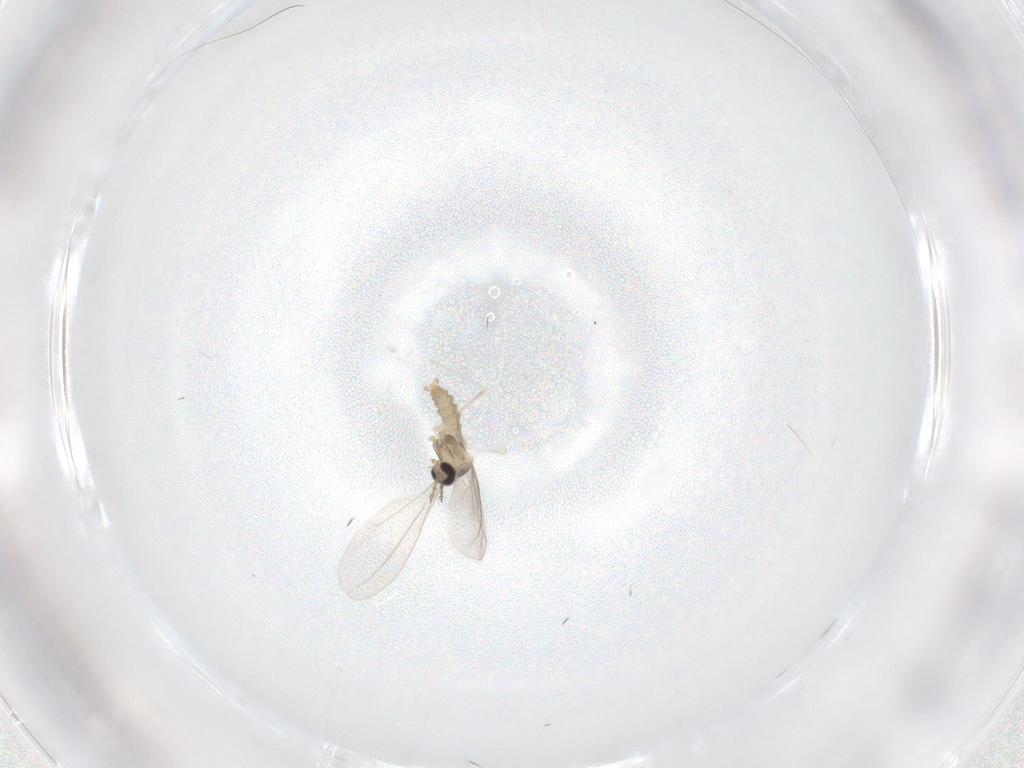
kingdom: Animalia
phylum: Arthropoda
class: Insecta
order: Diptera
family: Cecidomyiidae
